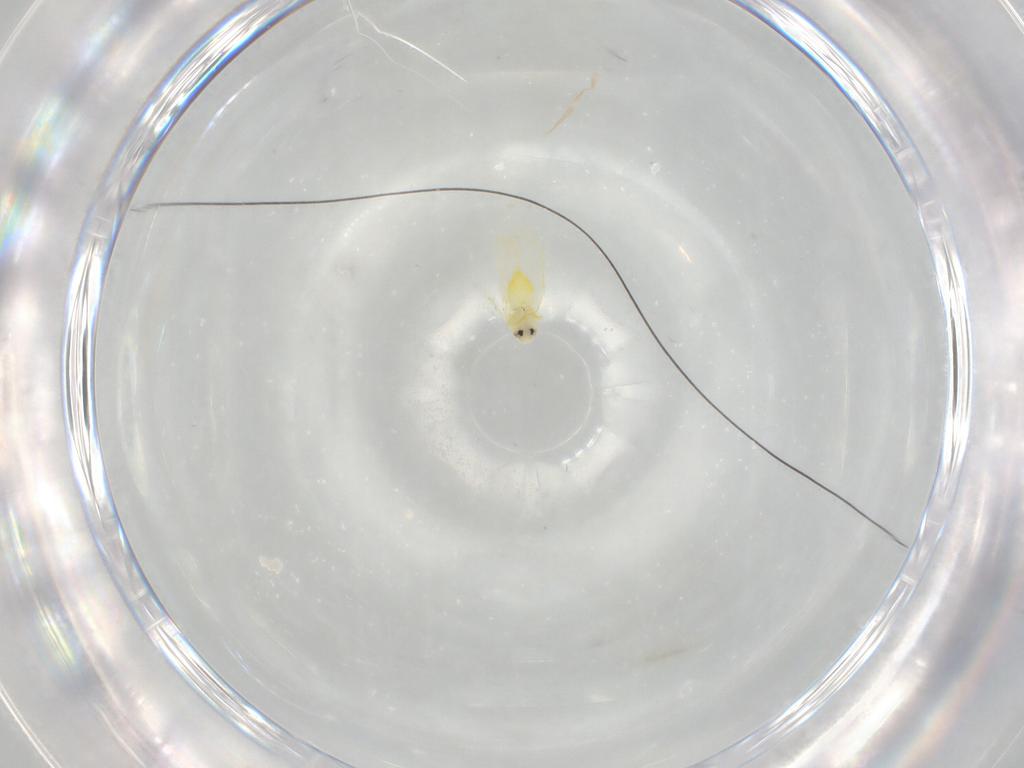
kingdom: Animalia
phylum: Arthropoda
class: Insecta
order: Hemiptera
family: Aleyrodidae
